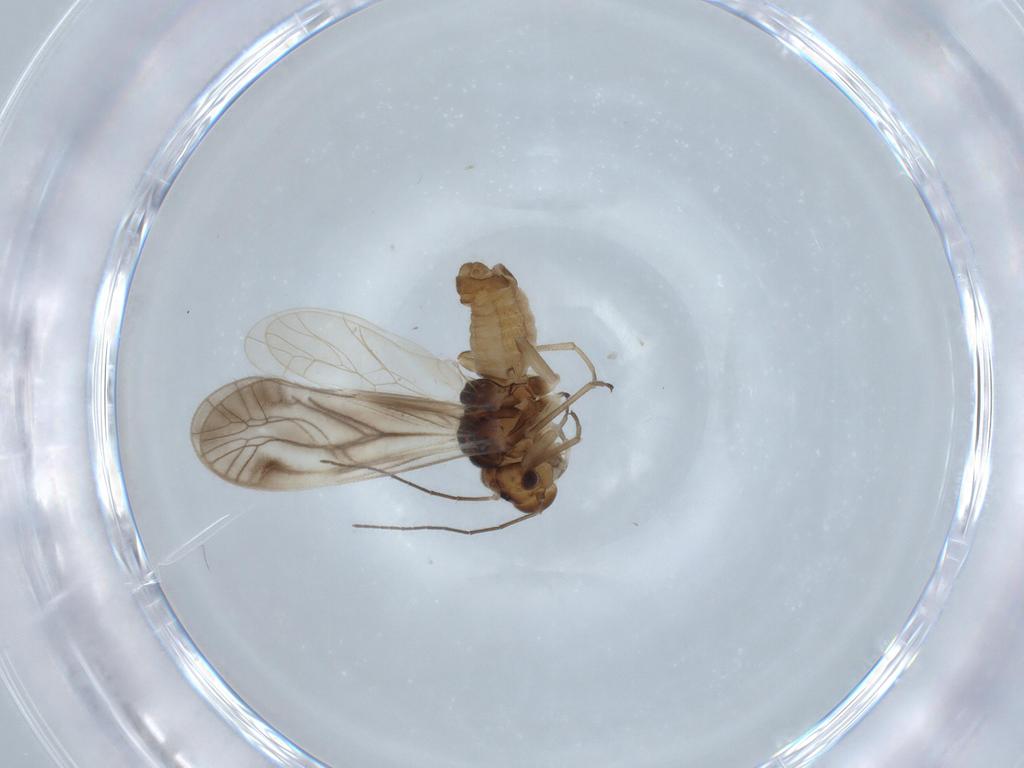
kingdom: Animalia
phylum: Arthropoda
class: Insecta
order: Psocodea
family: Philotarsidae
